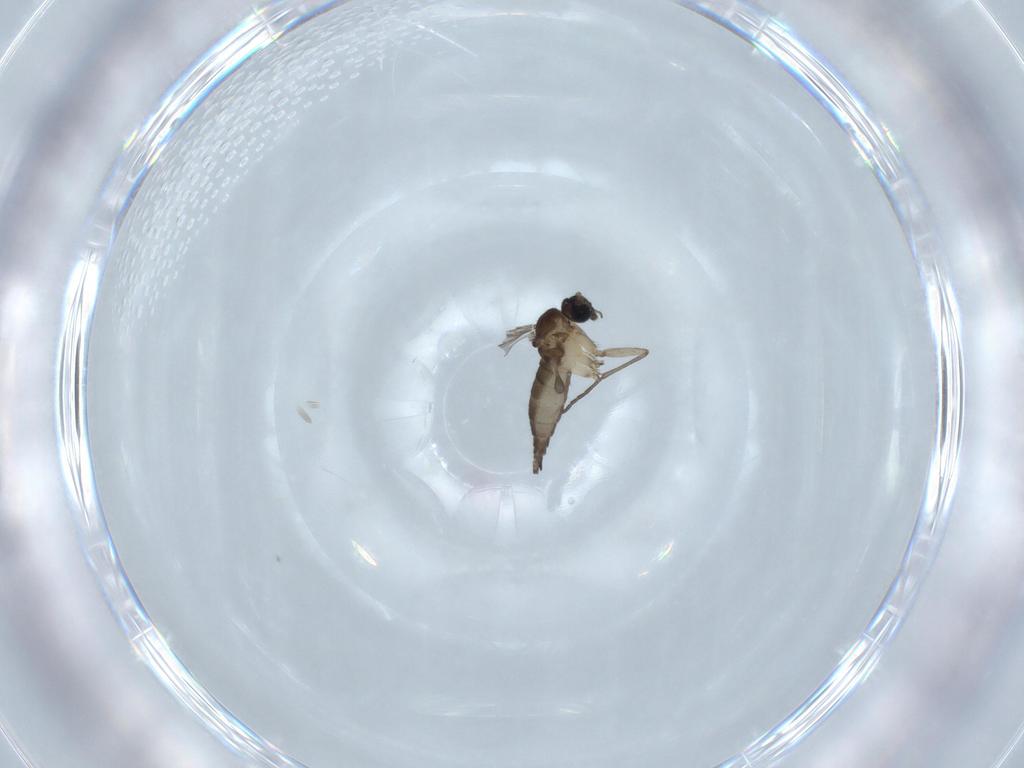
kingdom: Animalia
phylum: Arthropoda
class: Insecta
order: Diptera
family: Sciaridae
